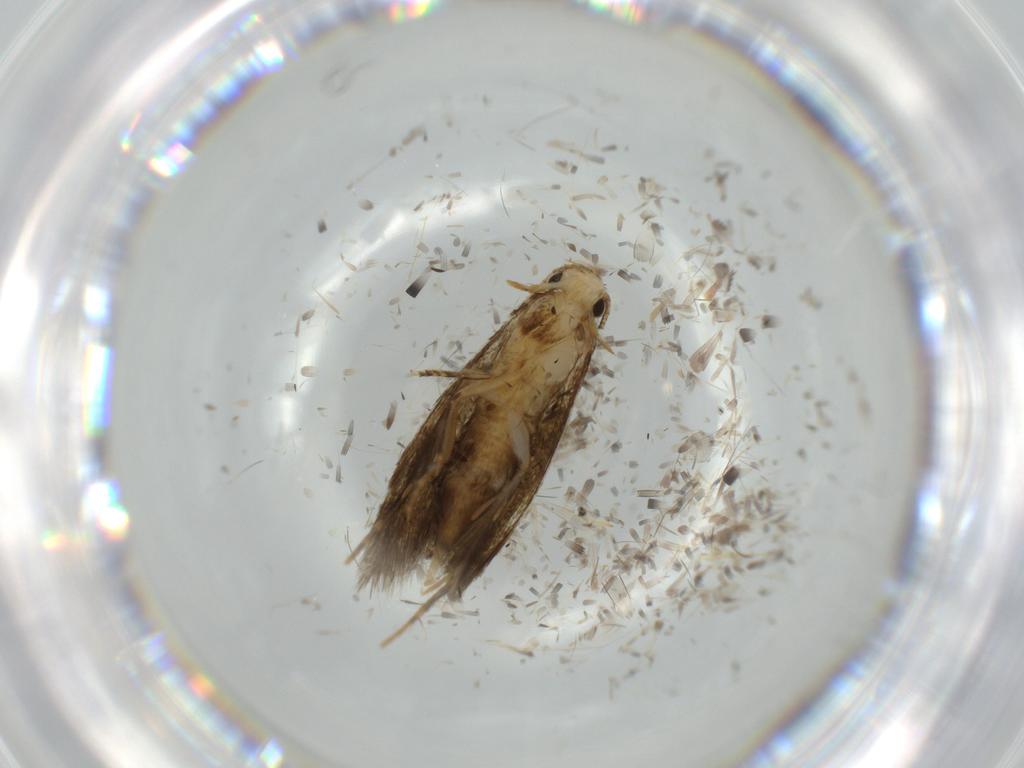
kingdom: Animalia
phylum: Arthropoda
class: Insecta
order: Lepidoptera
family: Tineidae
